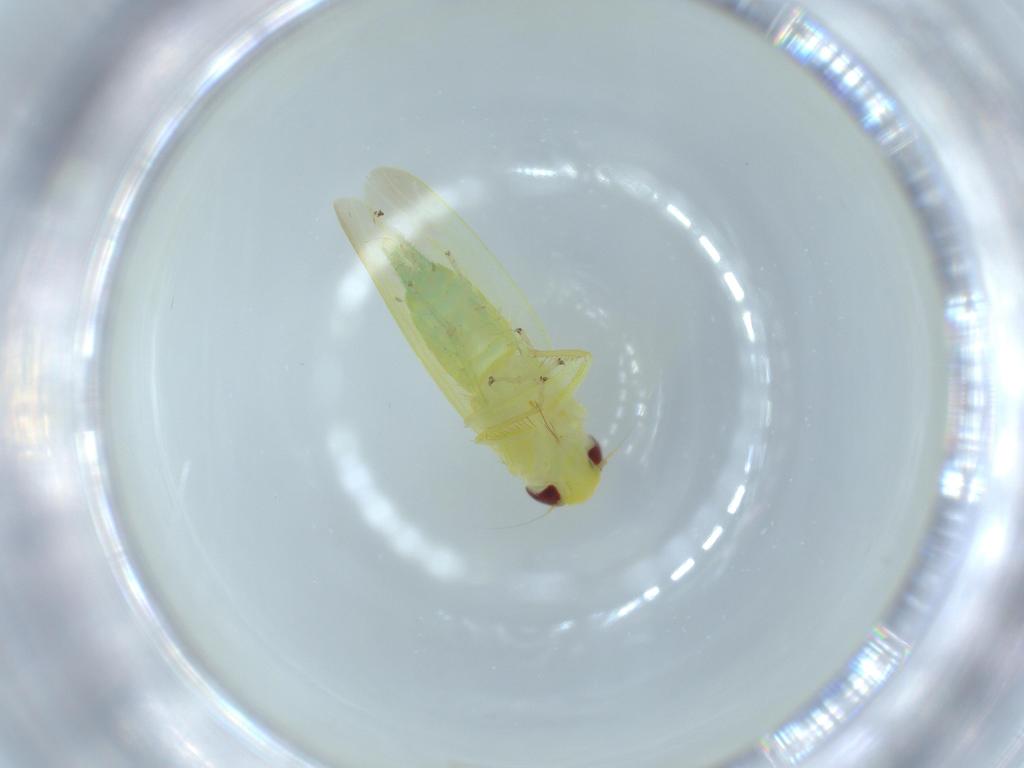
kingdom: Animalia
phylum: Arthropoda
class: Insecta
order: Hemiptera
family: Cicadellidae
